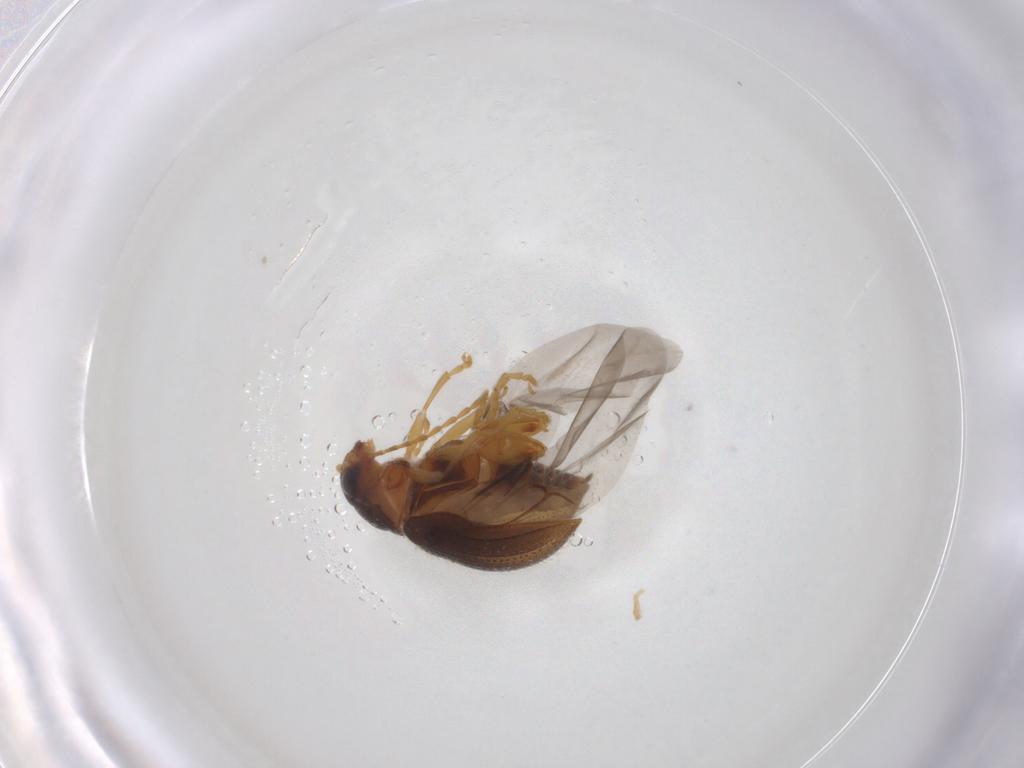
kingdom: Animalia
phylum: Arthropoda
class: Insecta
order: Coleoptera
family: Chrysomelidae
